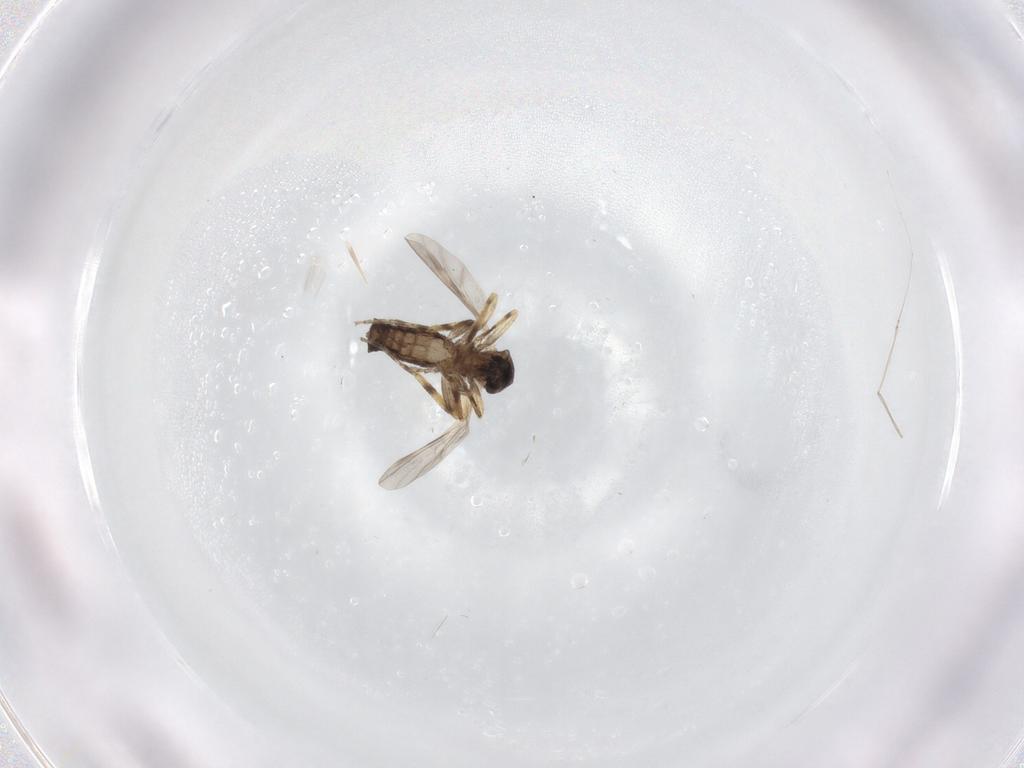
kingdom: Animalia
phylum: Arthropoda
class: Insecta
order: Diptera
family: Ceratopogonidae
